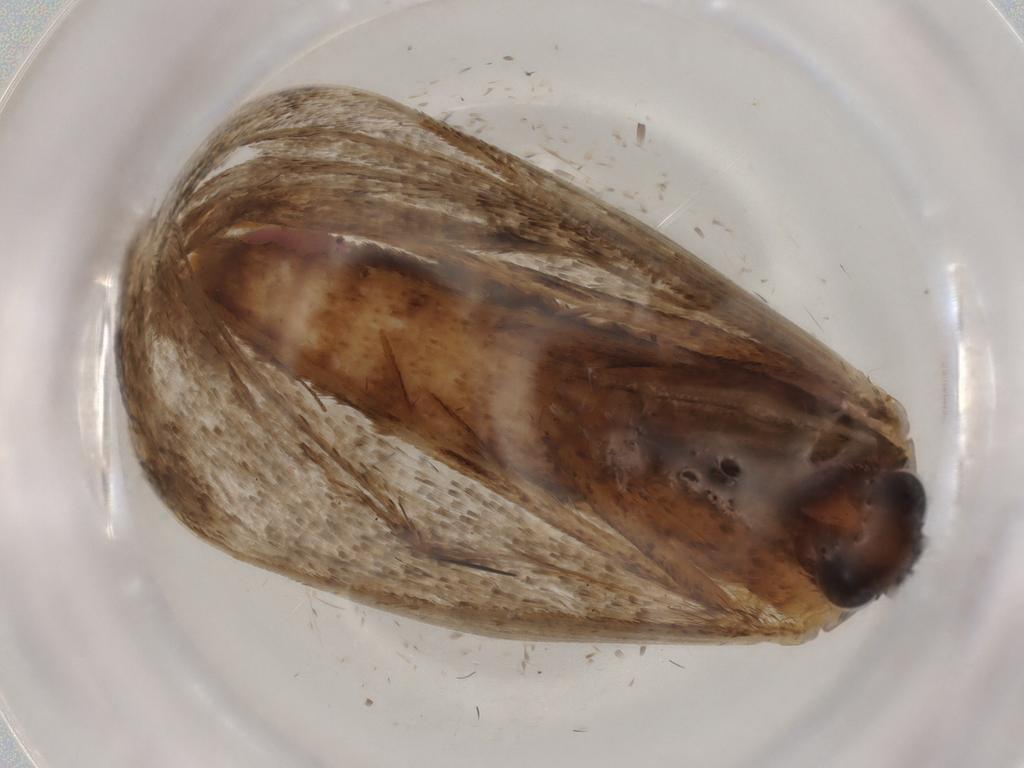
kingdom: Animalia
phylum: Arthropoda
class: Insecta
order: Lepidoptera
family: Erebidae
